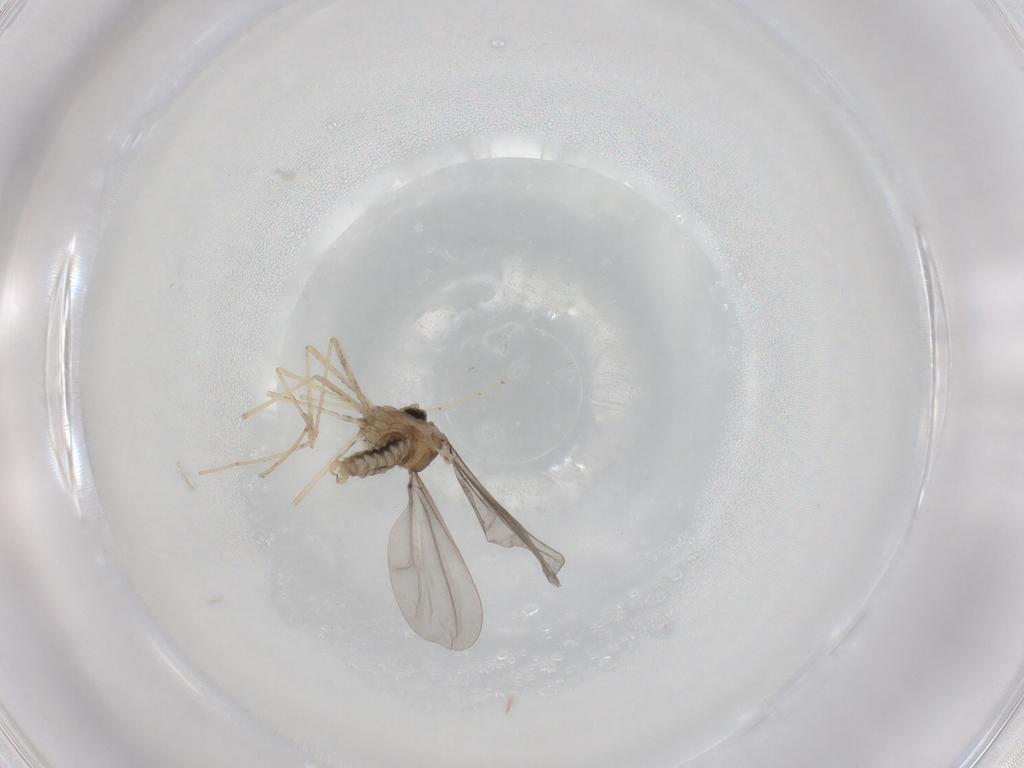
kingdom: Animalia
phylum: Arthropoda
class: Insecta
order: Diptera
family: Cecidomyiidae
